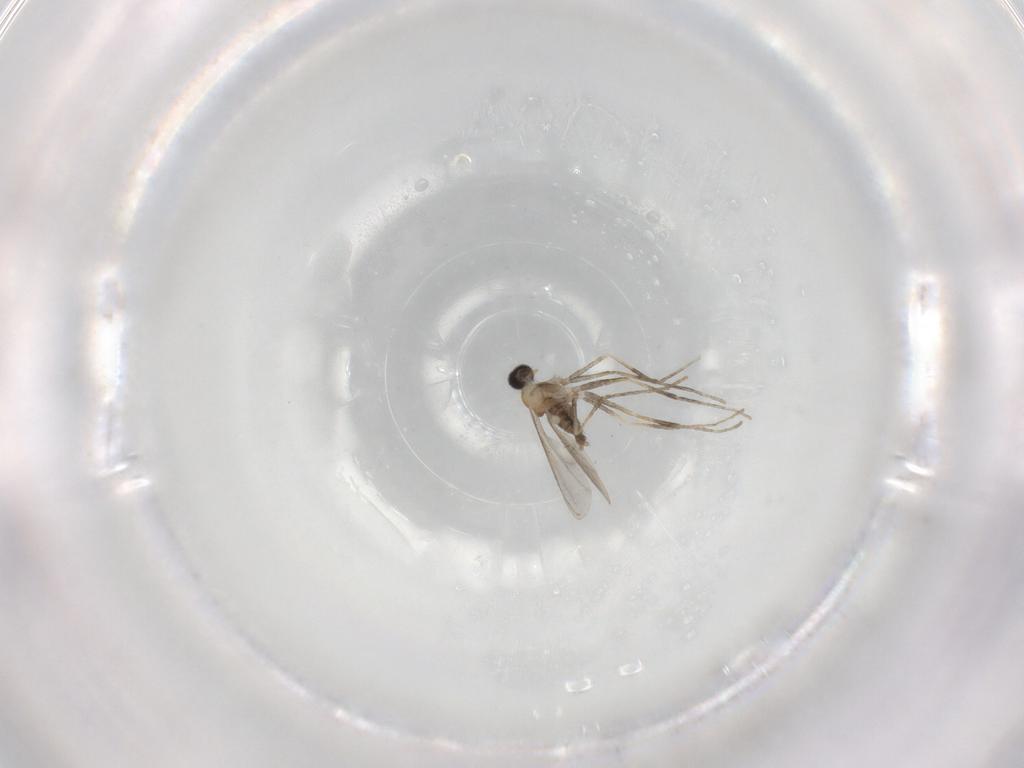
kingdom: Animalia
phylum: Arthropoda
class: Insecta
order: Diptera
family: Cecidomyiidae
